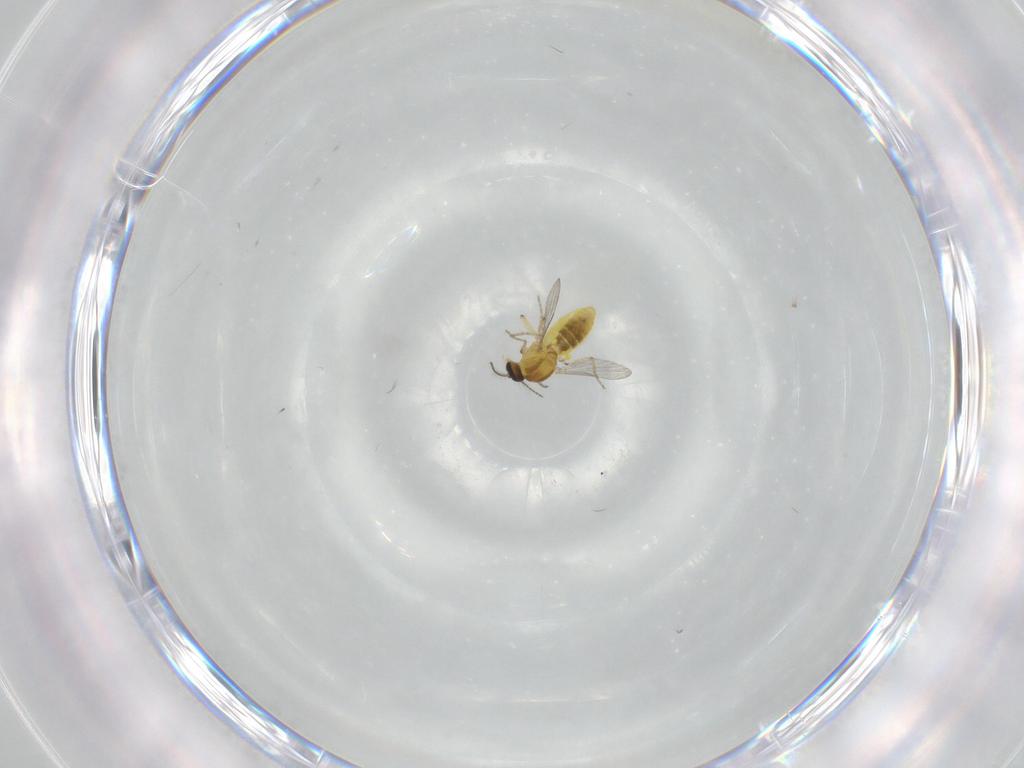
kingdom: Animalia
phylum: Arthropoda
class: Insecta
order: Diptera
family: Ceratopogonidae
